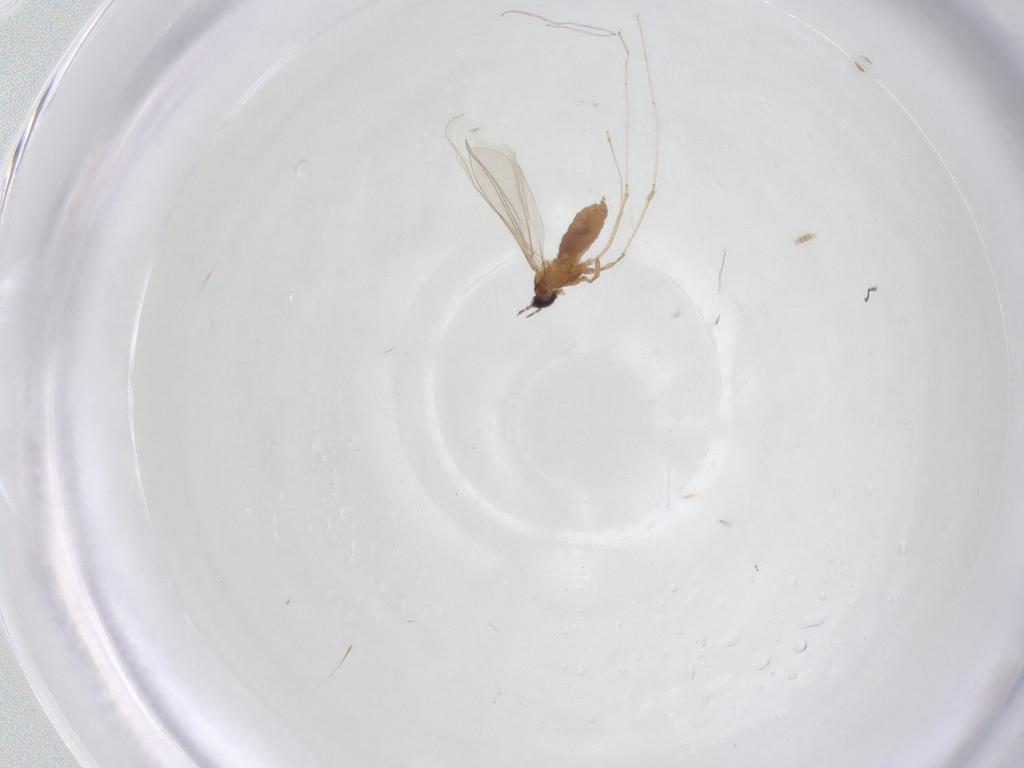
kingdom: Animalia
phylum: Arthropoda
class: Insecta
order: Diptera
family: Cecidomyiidae
